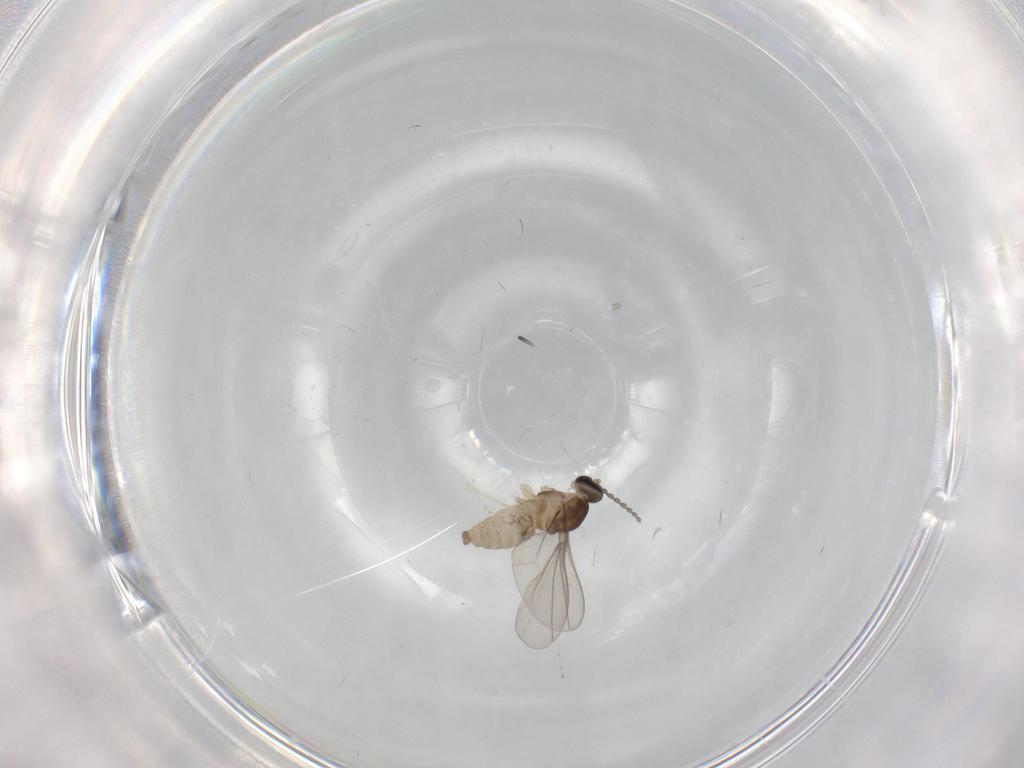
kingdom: Animalia
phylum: Arthropoda
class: Insecta
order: Diptera
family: Cecidomyiidae
